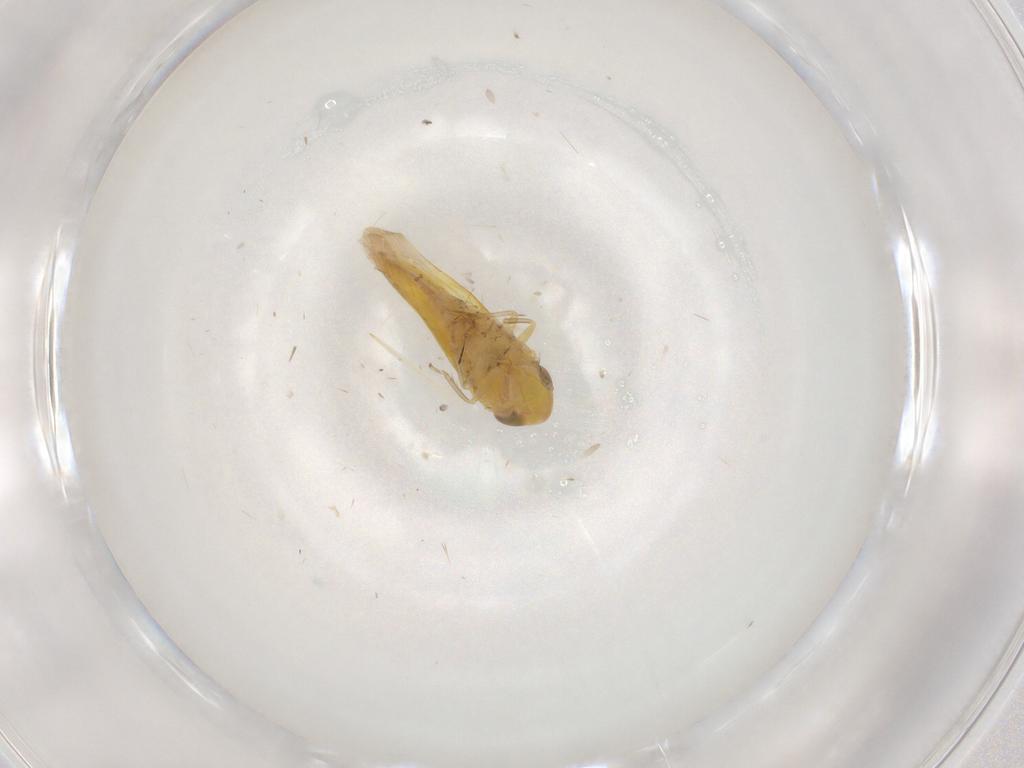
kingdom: Animalia
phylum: Arthropoda
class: Insecta
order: Hemiptera
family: Cicadellidae
